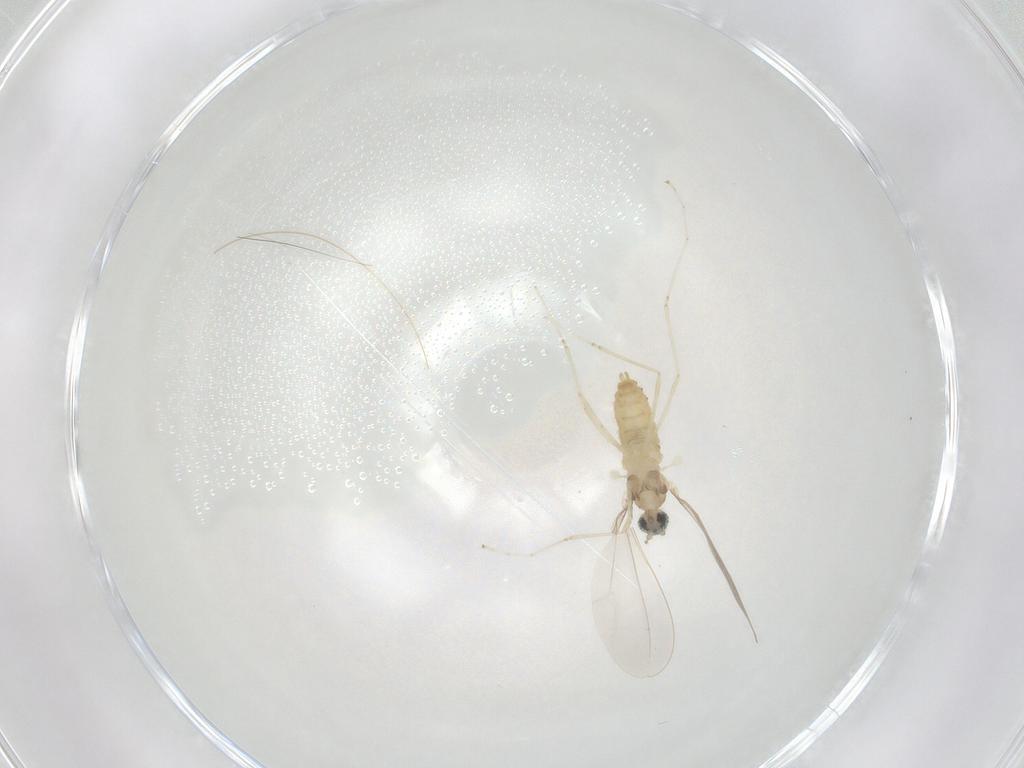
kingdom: Animalia
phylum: Arthropoda
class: Insecta
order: Diptera
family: Cecidomyiidae
